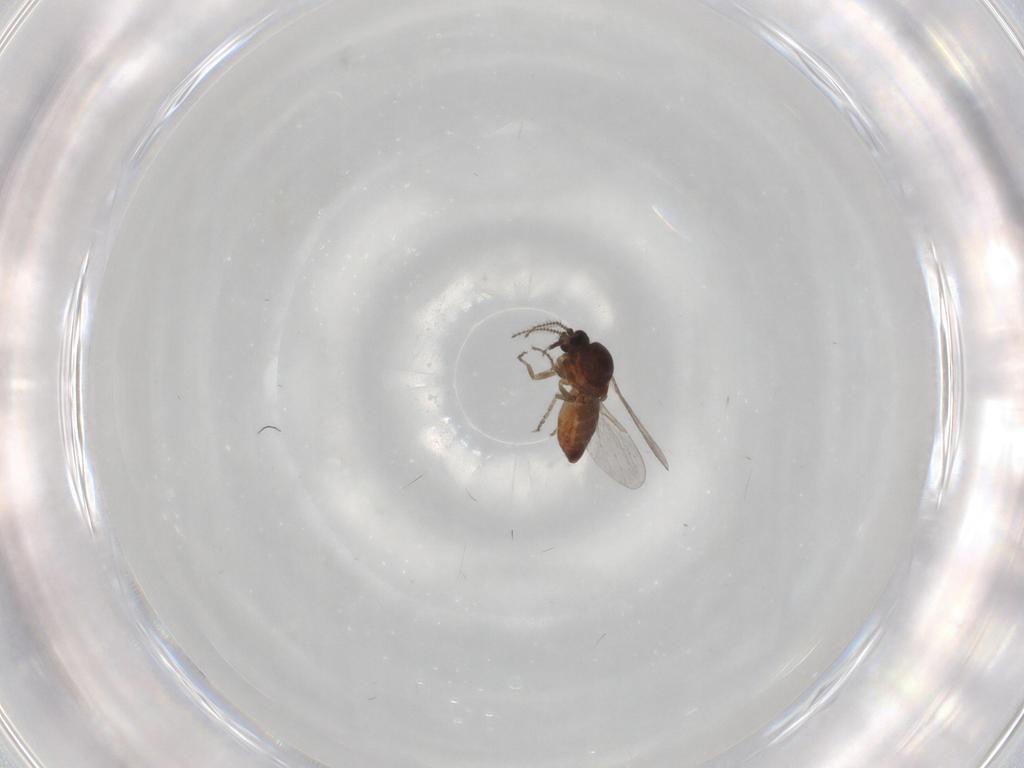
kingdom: Animalia
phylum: Arthropoda
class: Insecta
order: Diptera
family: Ceratopogonidae
